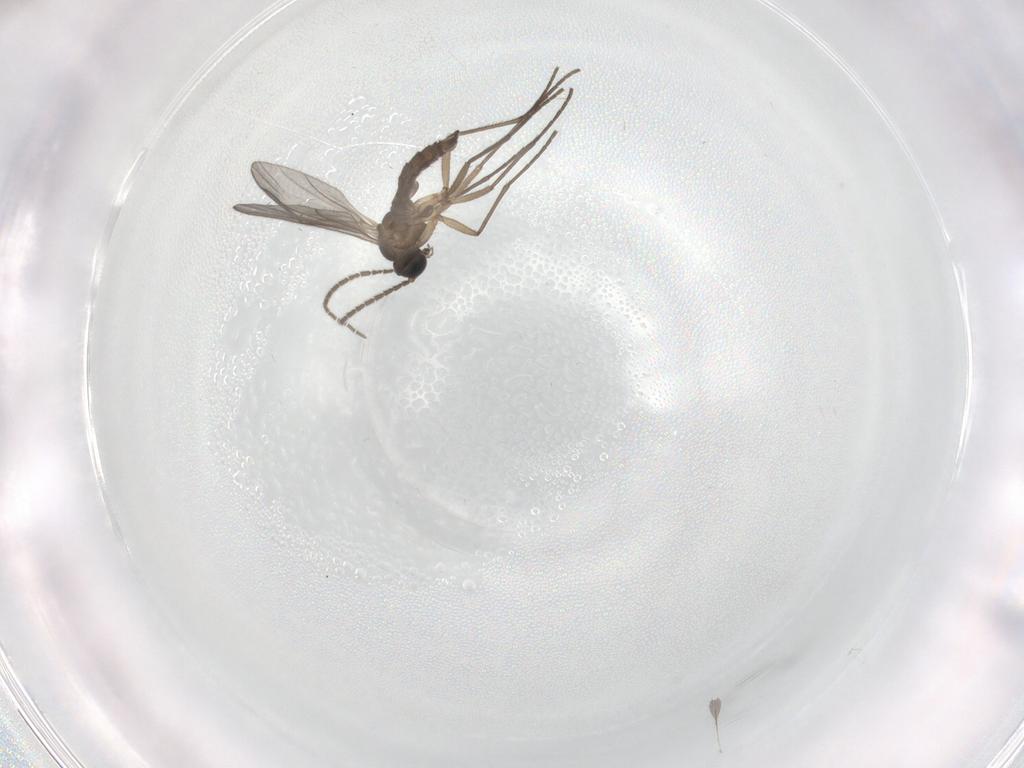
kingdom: Animalia
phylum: Arthropoda
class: Insecta
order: Diptera
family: Sciaridae
